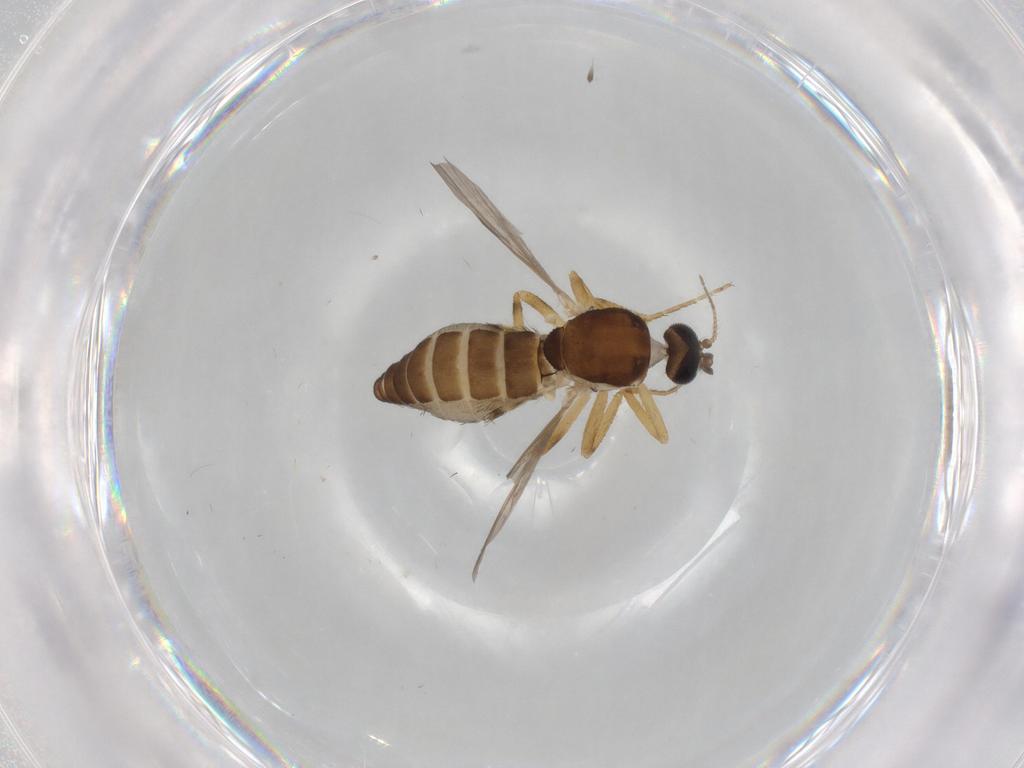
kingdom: Animalia
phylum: Arthropoda
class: Insecta
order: Diptera
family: Ceratopogonidae
